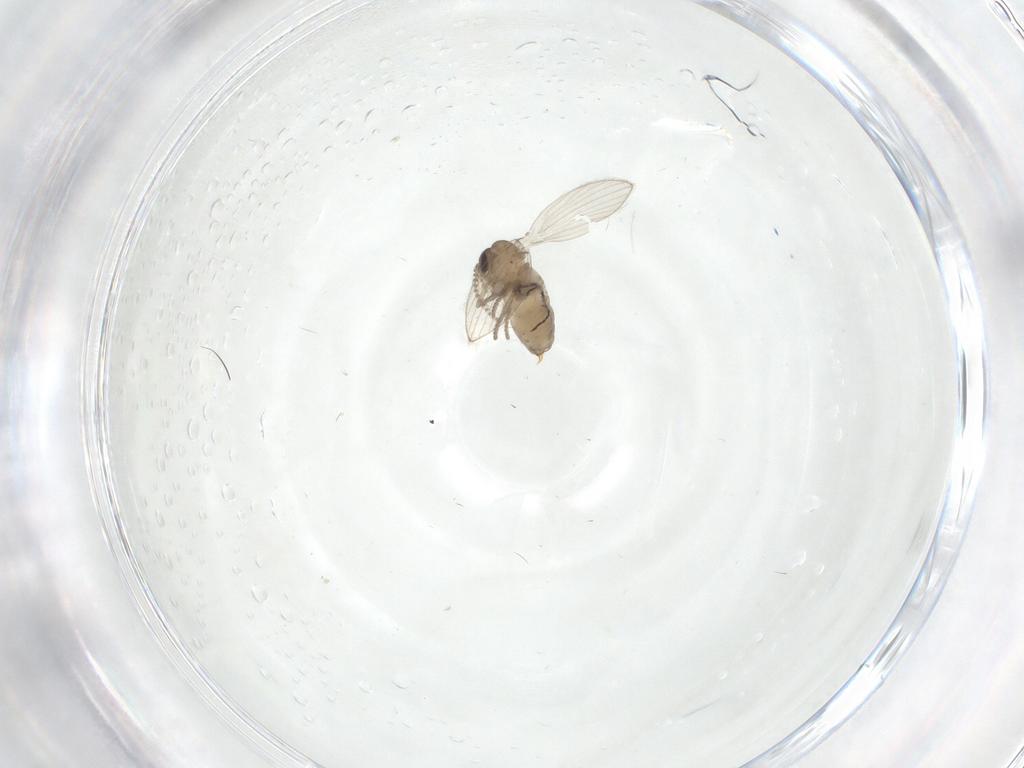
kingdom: Animalia
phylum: Arthropoda
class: Insecta
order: Diptera
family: Psychodidae
